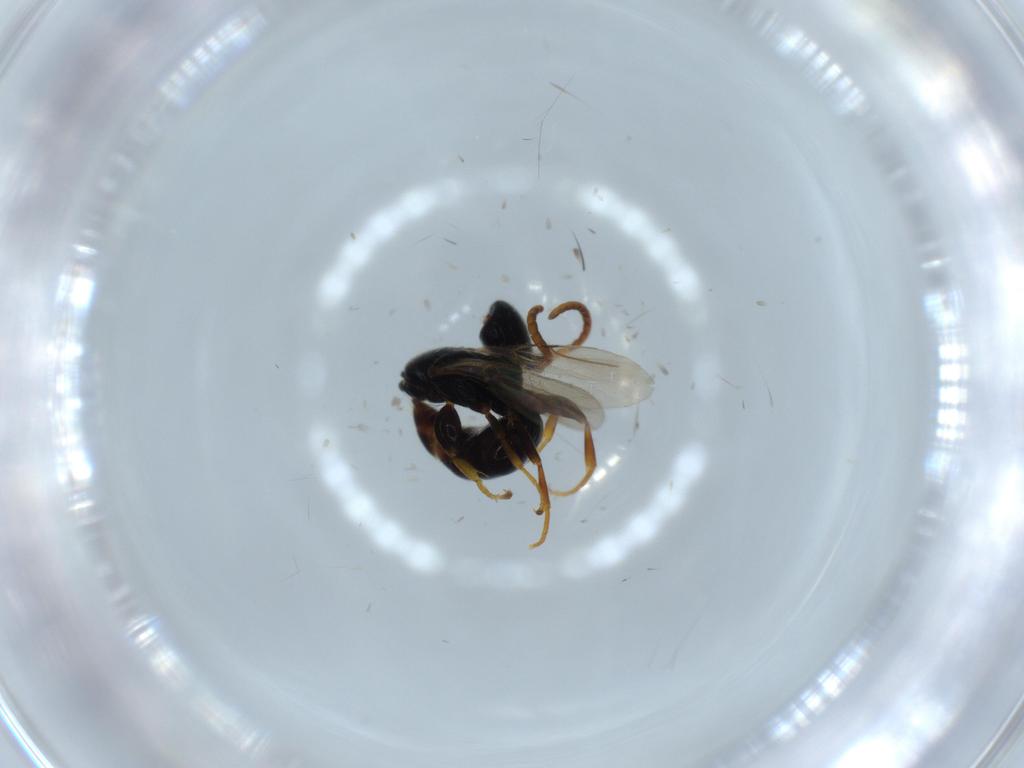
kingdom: Animalia
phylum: Arthropoda
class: Insecta
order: Hymenoptera
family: Bethylidae
